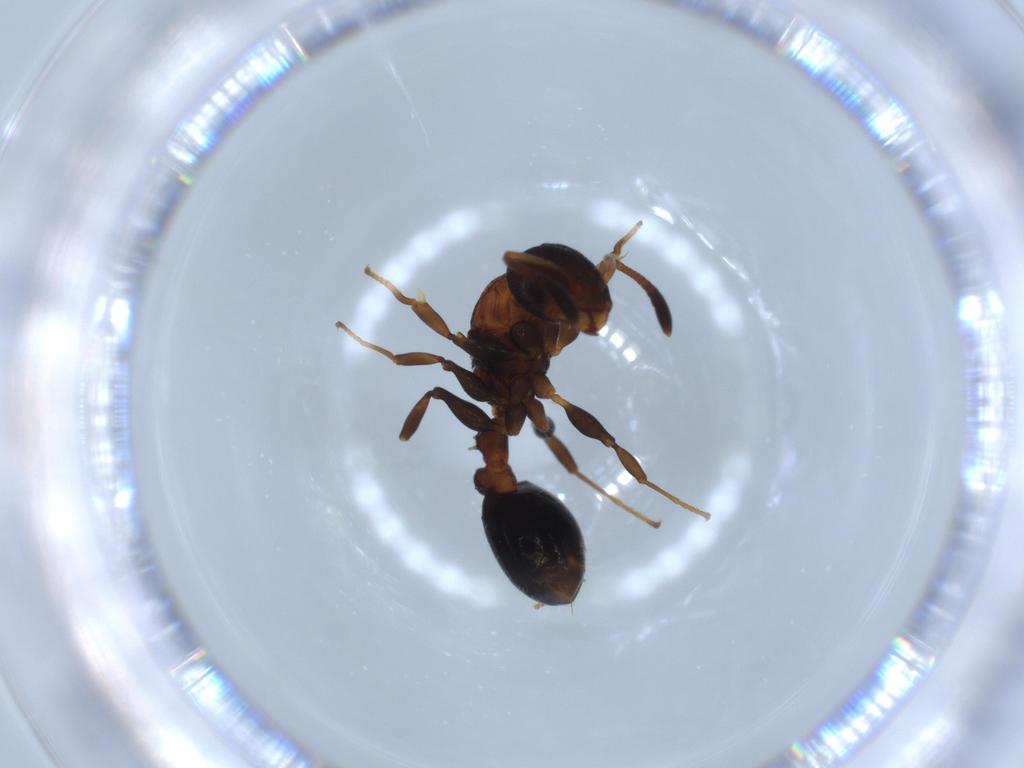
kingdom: Animalia
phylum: Arthropoda
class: Insecta
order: Hymenoptera
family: Formicidae
